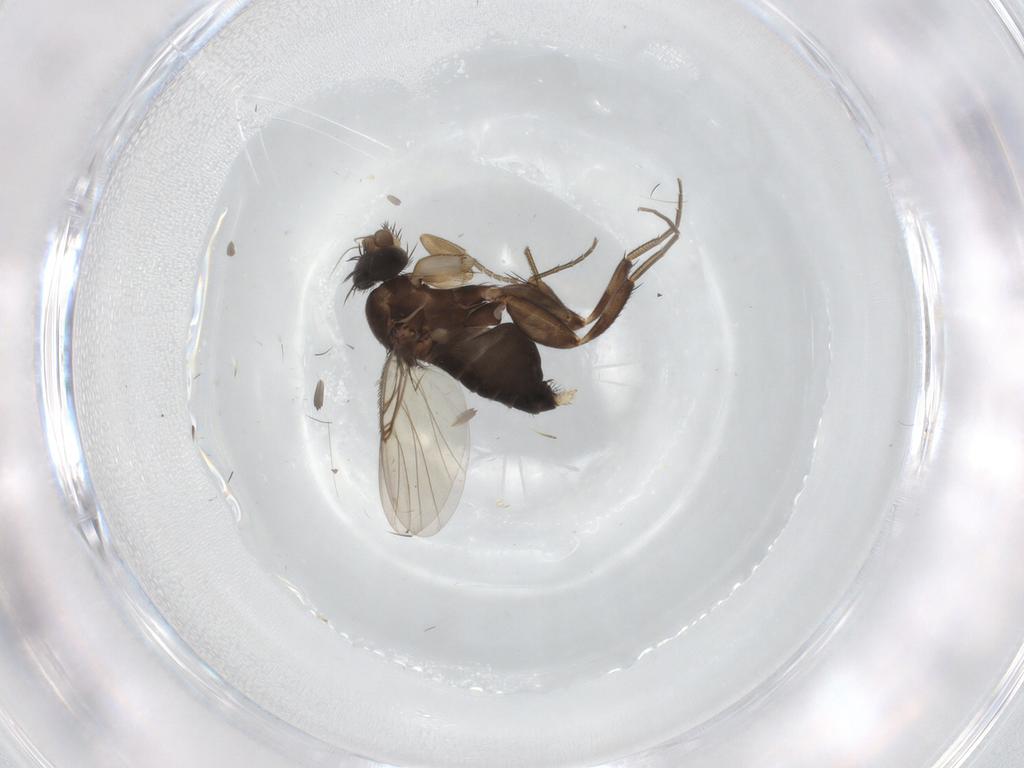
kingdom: Animalia
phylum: Arthropoda
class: Insecta
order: Diptera
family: Phoridae
